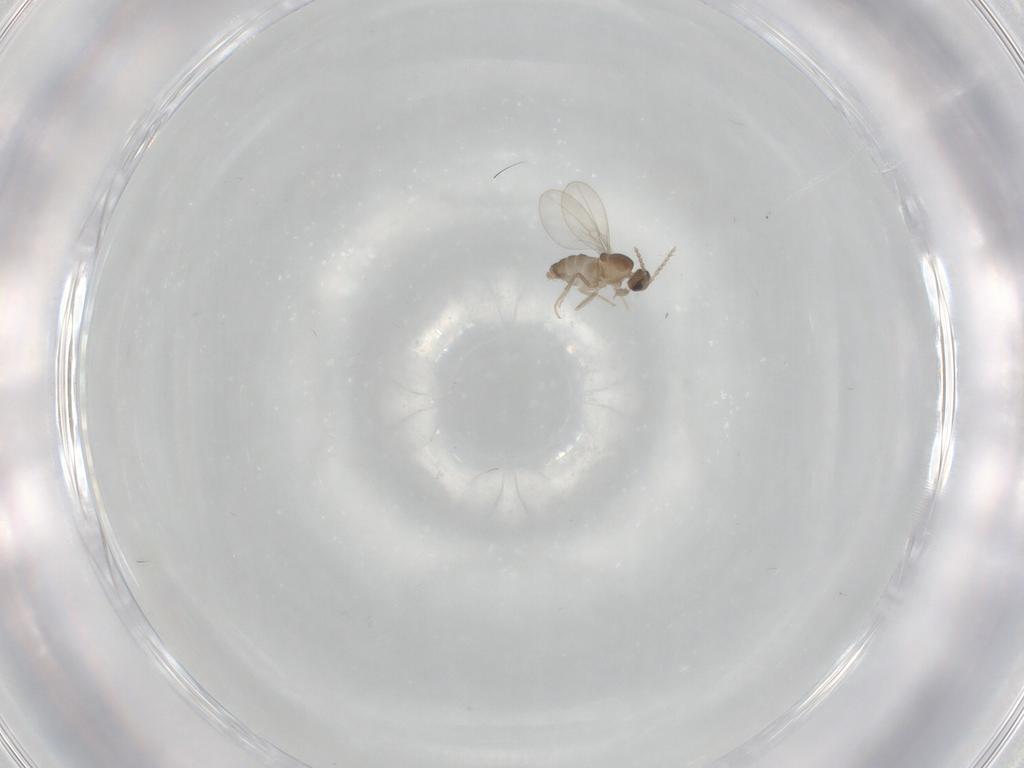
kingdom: Animalia
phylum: Arthropoda
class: Insecta
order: Diptera
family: Cecidomyiidae
